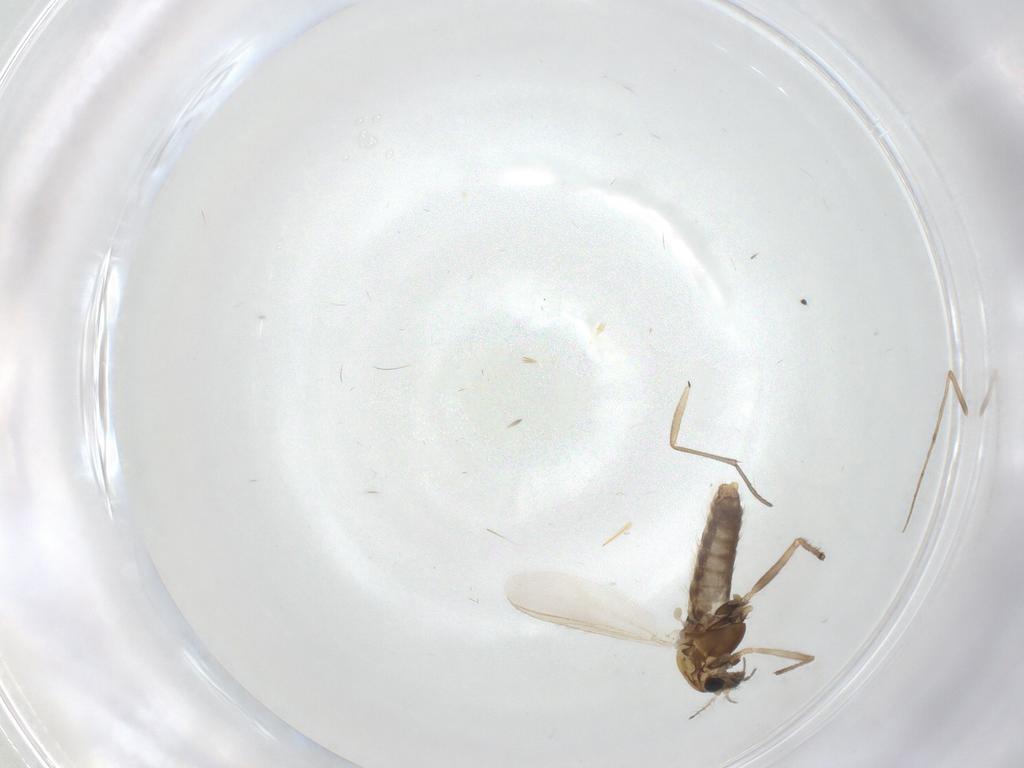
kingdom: Animalia
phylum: Arthropoda
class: Insecta
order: Diptera
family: Chironomidae
